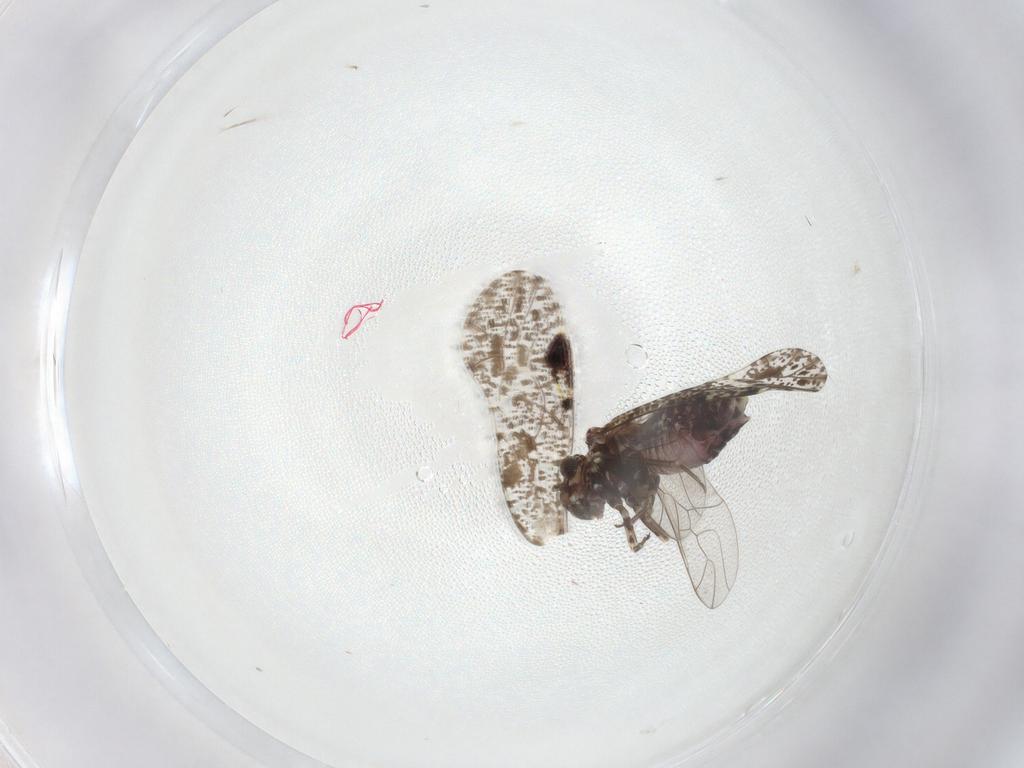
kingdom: Animalia
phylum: Arthropoda
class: Insecta
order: Psocodea
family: Psocidae
